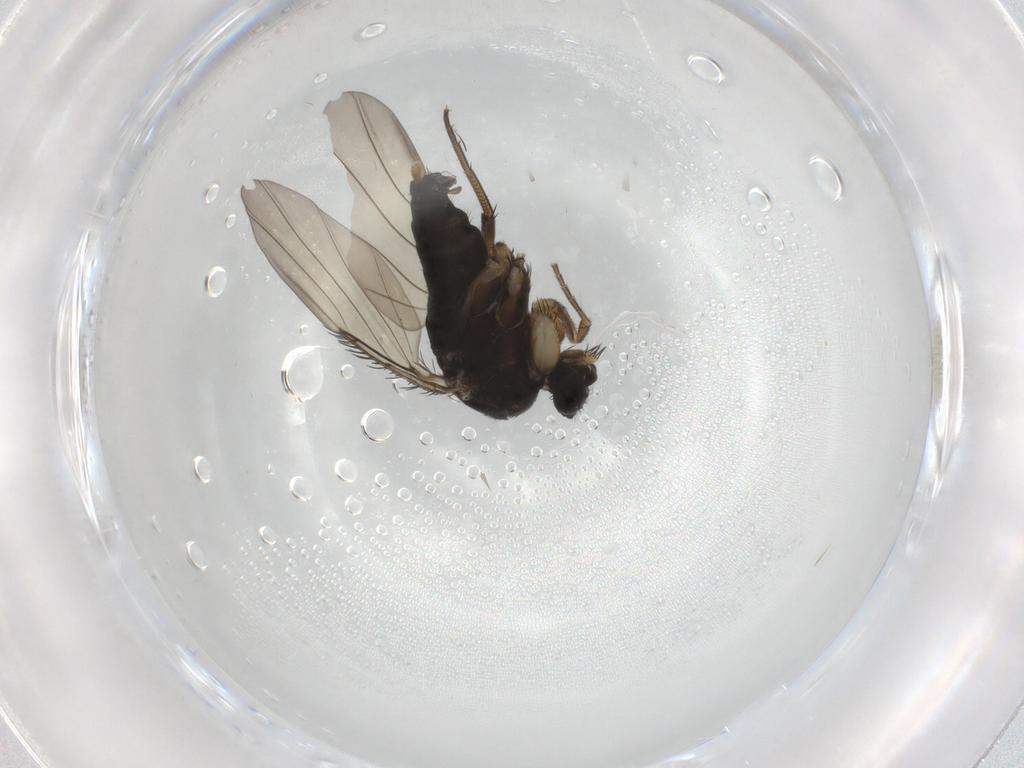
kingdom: Animalia
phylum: Arthropoda
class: Insecta
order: Diptera
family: Phoridae
